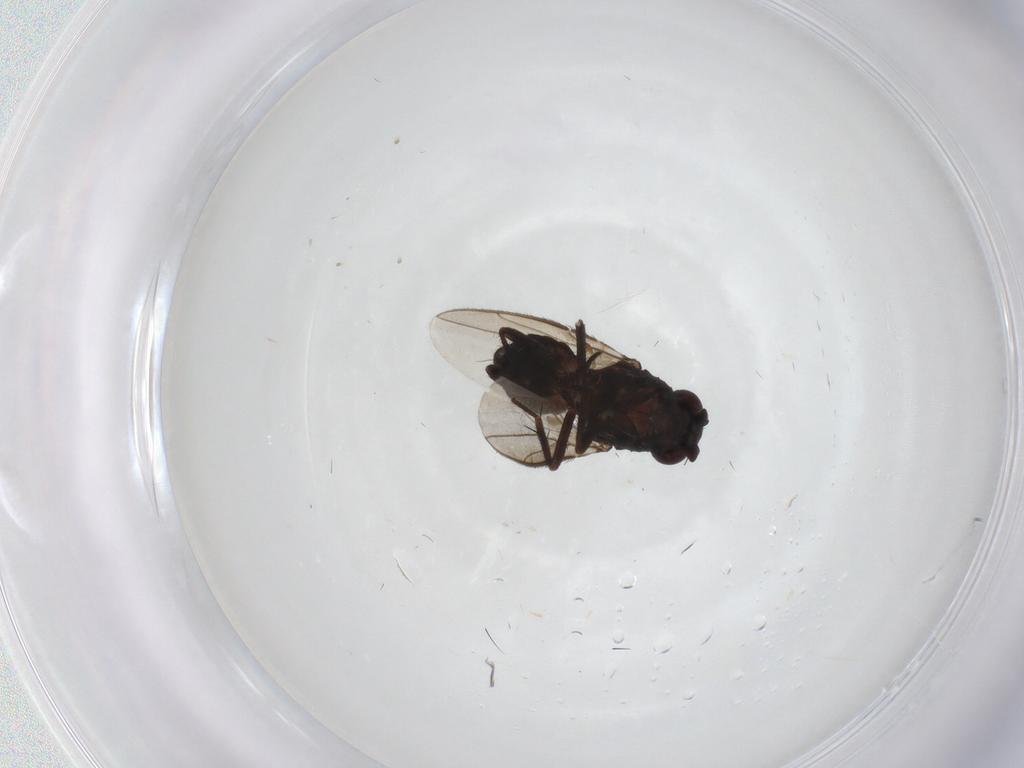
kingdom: Animalia
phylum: Arthropoda
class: Insecta
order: Diptera
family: Sphaeroceridae
